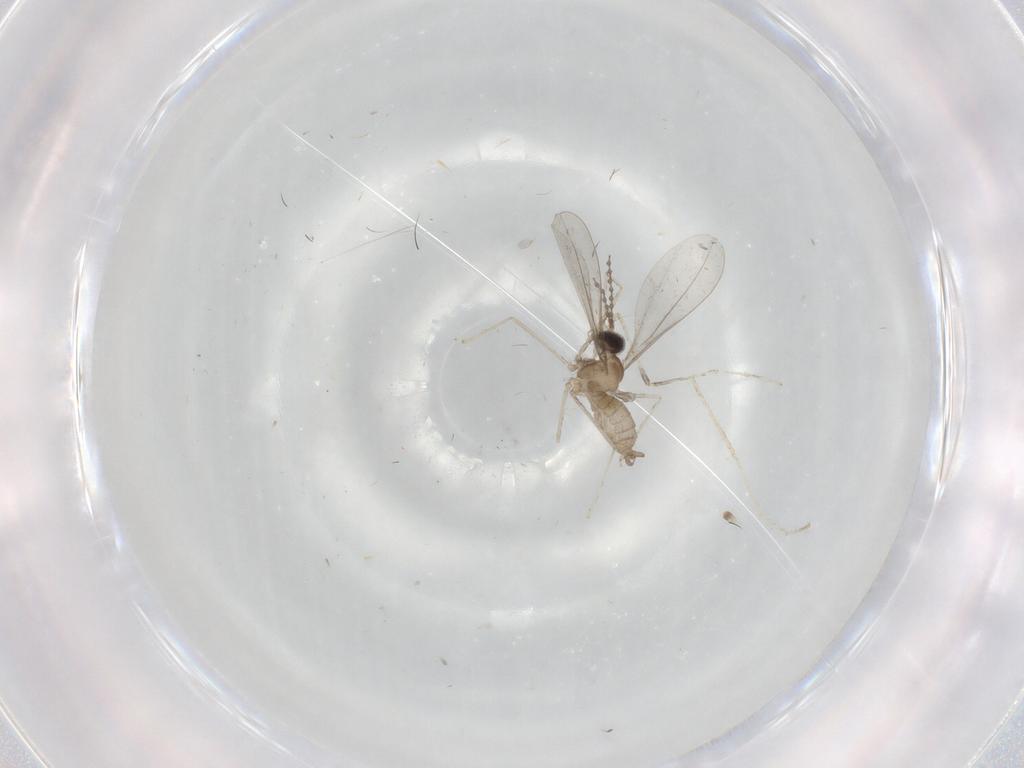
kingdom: Animalia
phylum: Arthropoda
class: Insecta
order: Diptera
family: Cecidomyiidae
